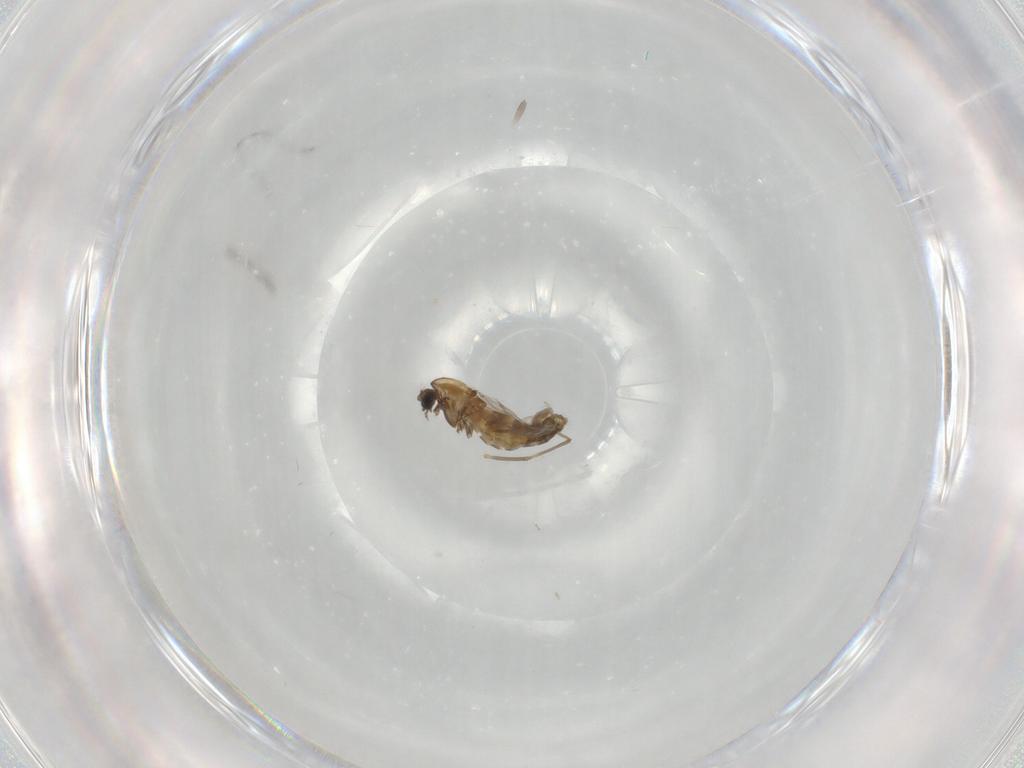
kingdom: Animalia
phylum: Arthropoda
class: Insecta
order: Diptera
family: Chironomidae
